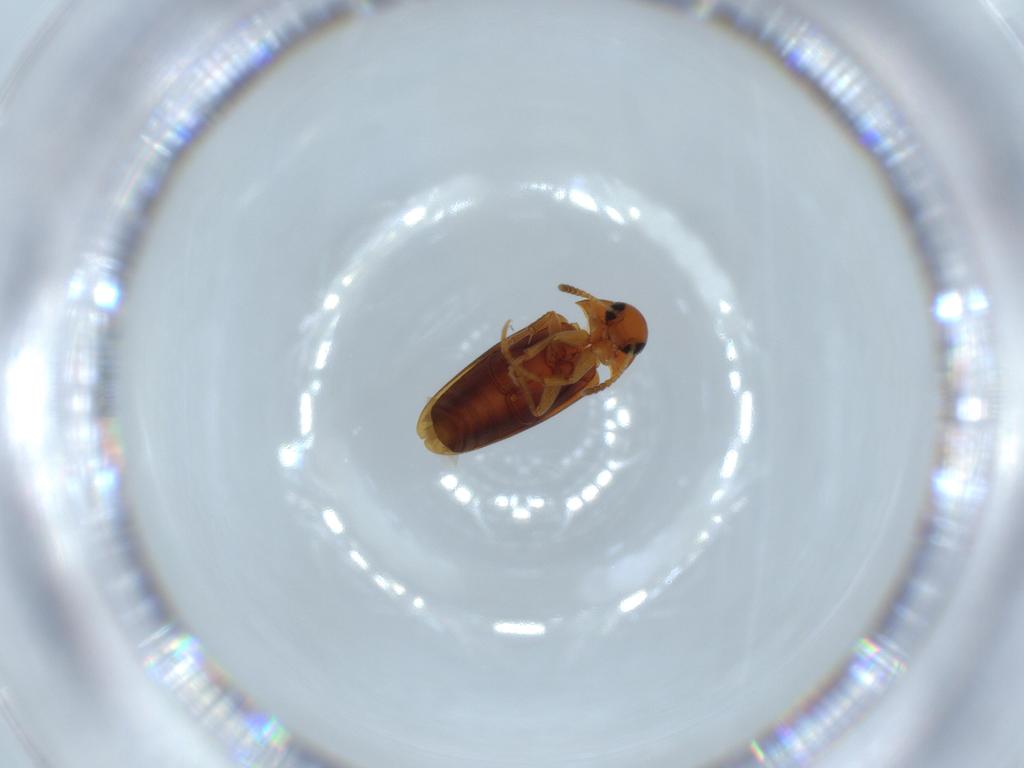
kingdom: Animalia
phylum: Arthropoda
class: Insecta
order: Coleoptera
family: Scraptiidae
